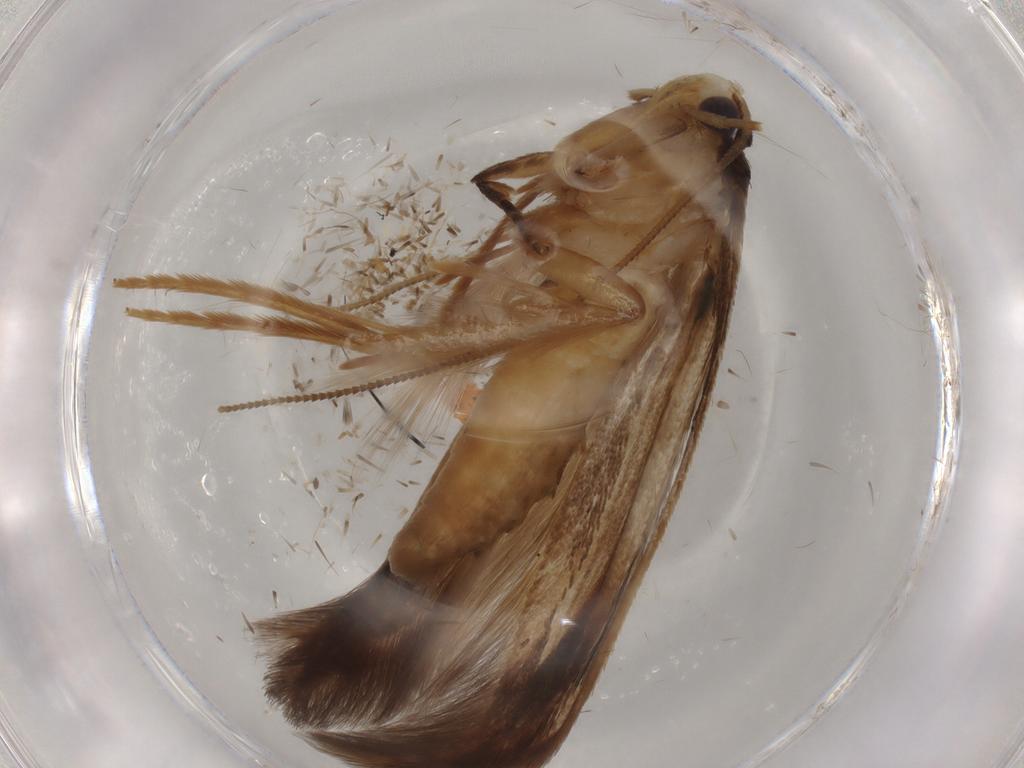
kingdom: Animalia
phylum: Arthropoda
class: Insecta
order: Lepidoptera
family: Tineidae
